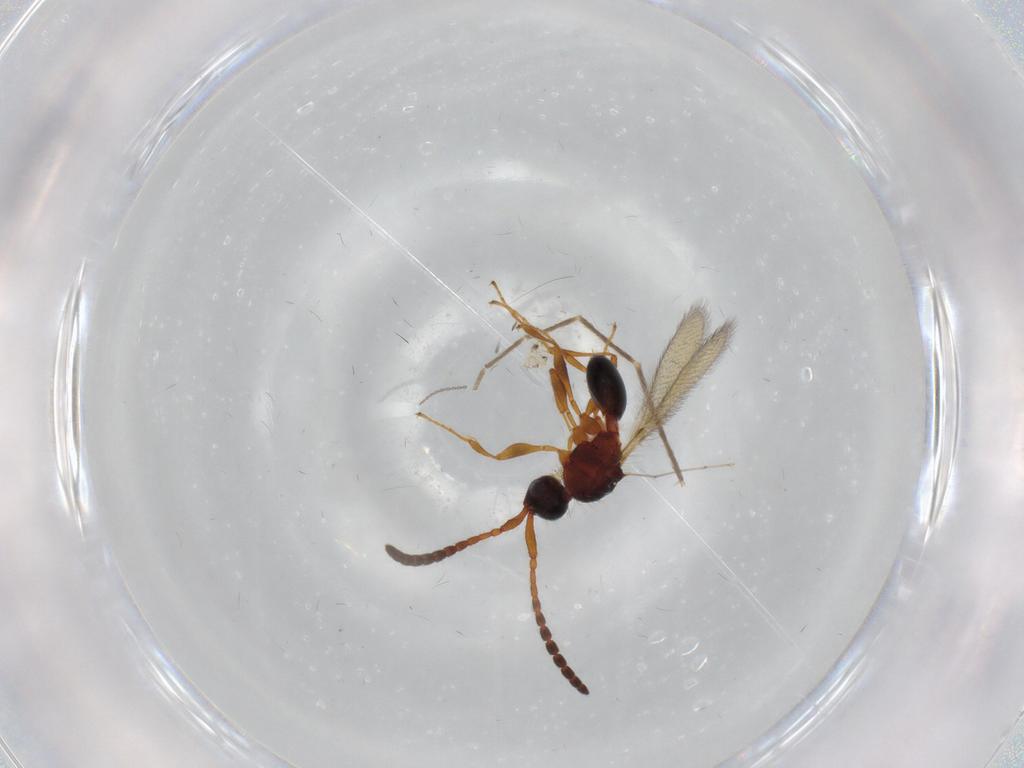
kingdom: Animalia
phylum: Arthropoda
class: Insecta
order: Hymenoptera
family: Diapriidae
